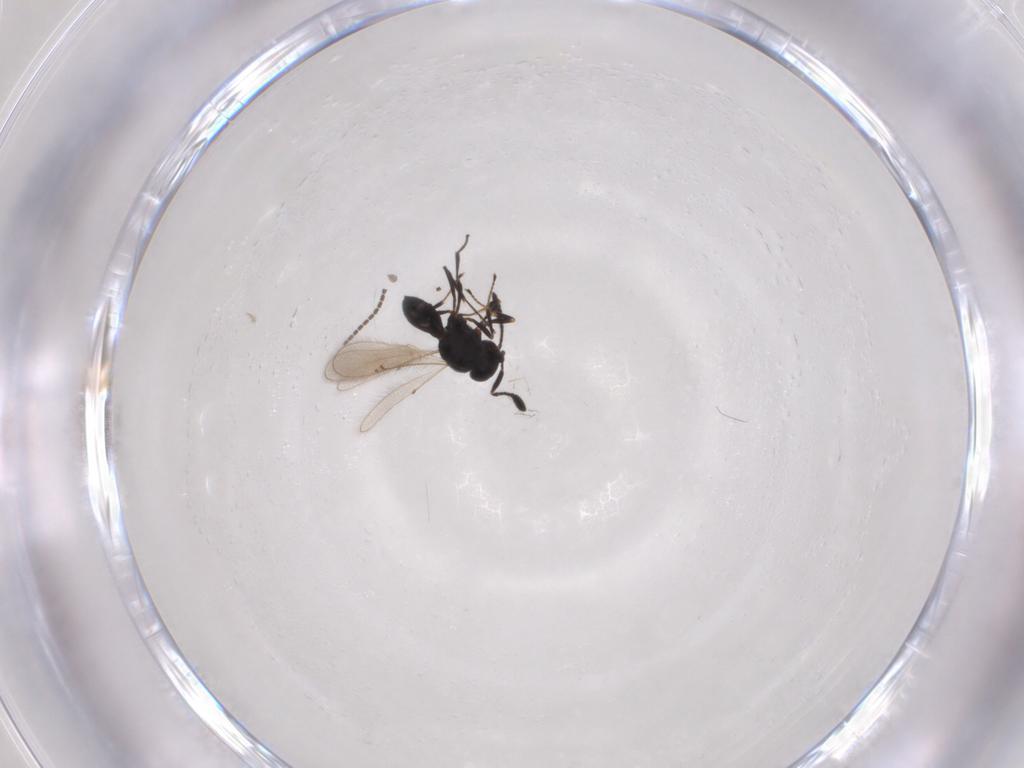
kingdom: Animalia
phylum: Arthropoda
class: Insecta
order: Hymenoptera
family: Scelionidae
